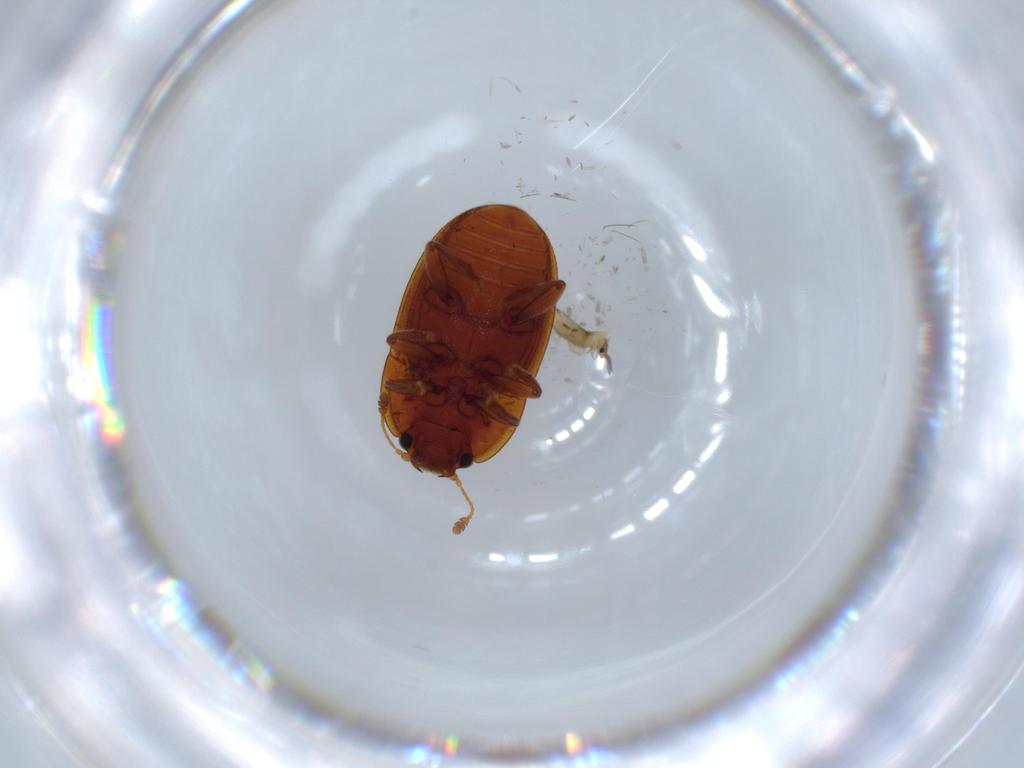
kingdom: Animalia
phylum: Arthropoda
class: Collembola
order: Entomobryomorpha
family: Entomobryidae
